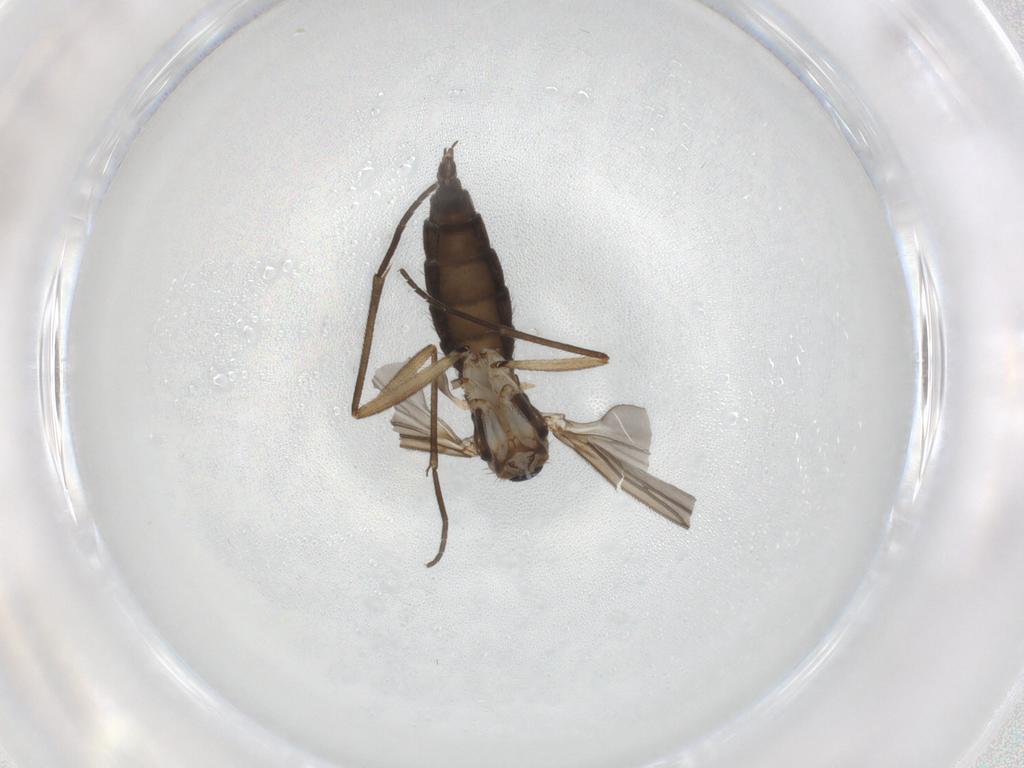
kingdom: Animalia
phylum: Arthropoda
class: Insecta
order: Diptera
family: Sciaridae
